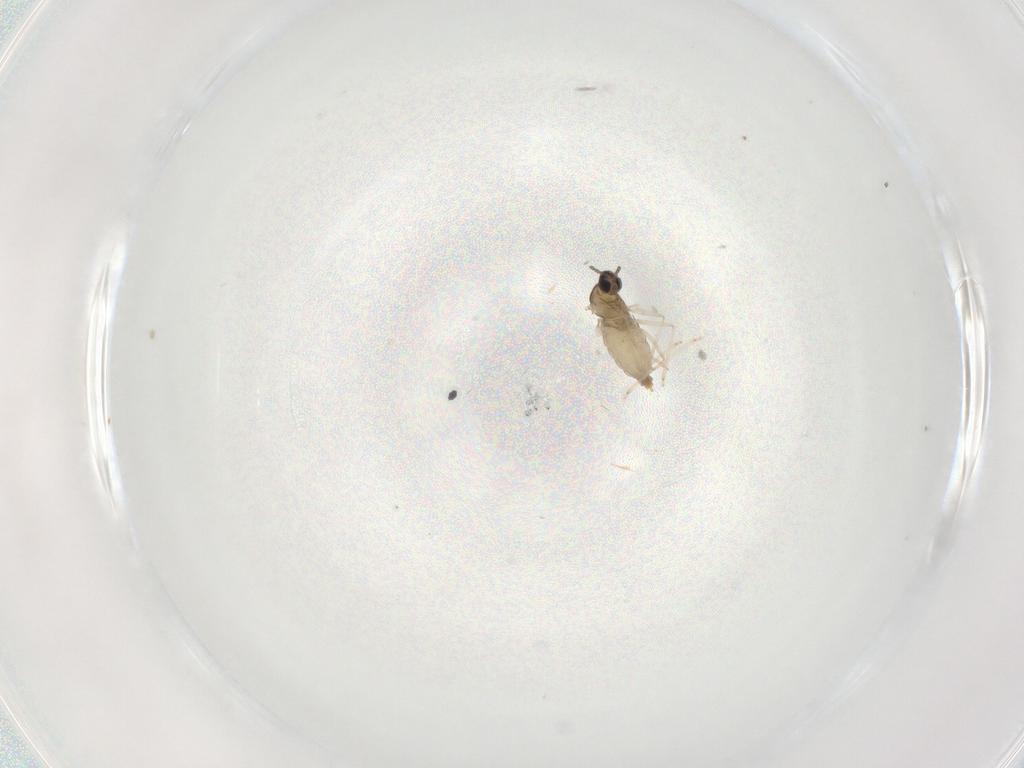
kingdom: Animalia
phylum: Arthropoda
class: Insecta
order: Diptera
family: Cecidomyiidae
